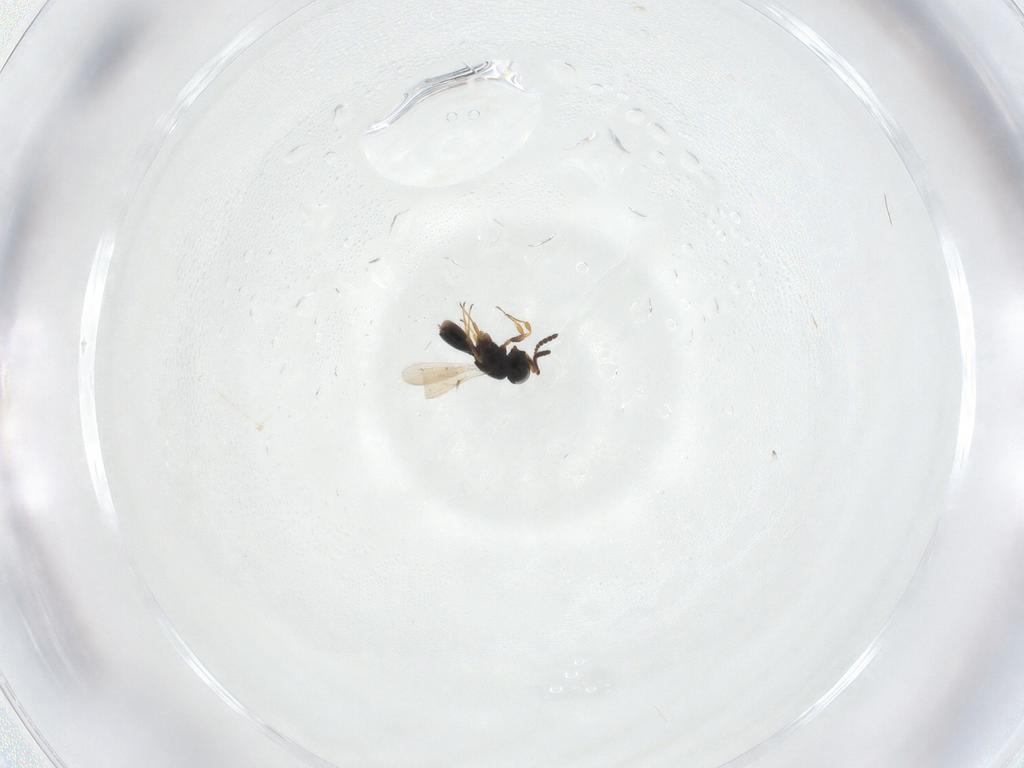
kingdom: Animalia
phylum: Arthropoda
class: Insecta
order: Hymenoptera
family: Scelionidae
